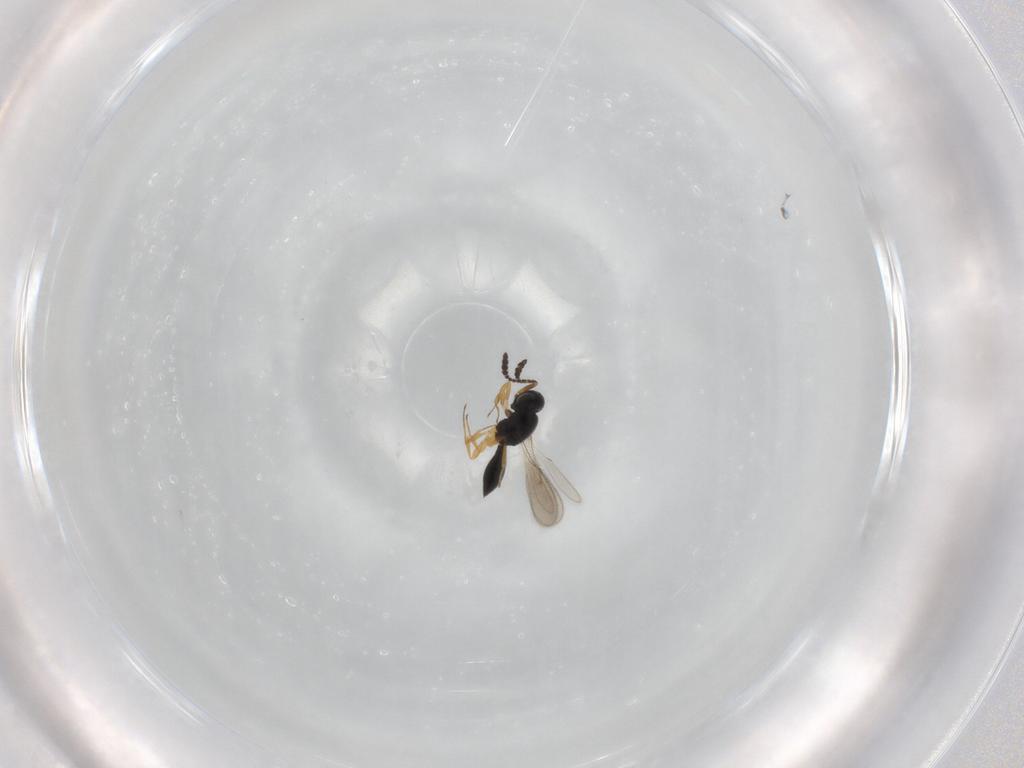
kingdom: Animalia
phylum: Arthropoda
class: Insecta
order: Hymenoptera
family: Scelionidae
